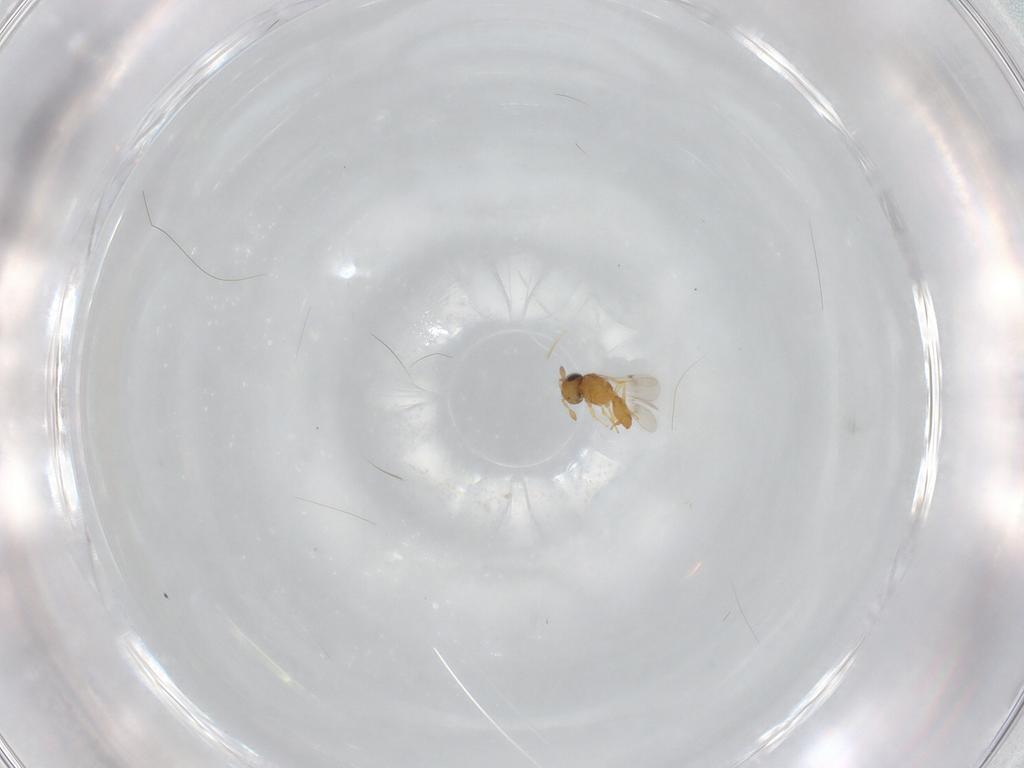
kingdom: Animalia
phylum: Arthropoda
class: Insecta
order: Hymenoptera
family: Scelionidae
